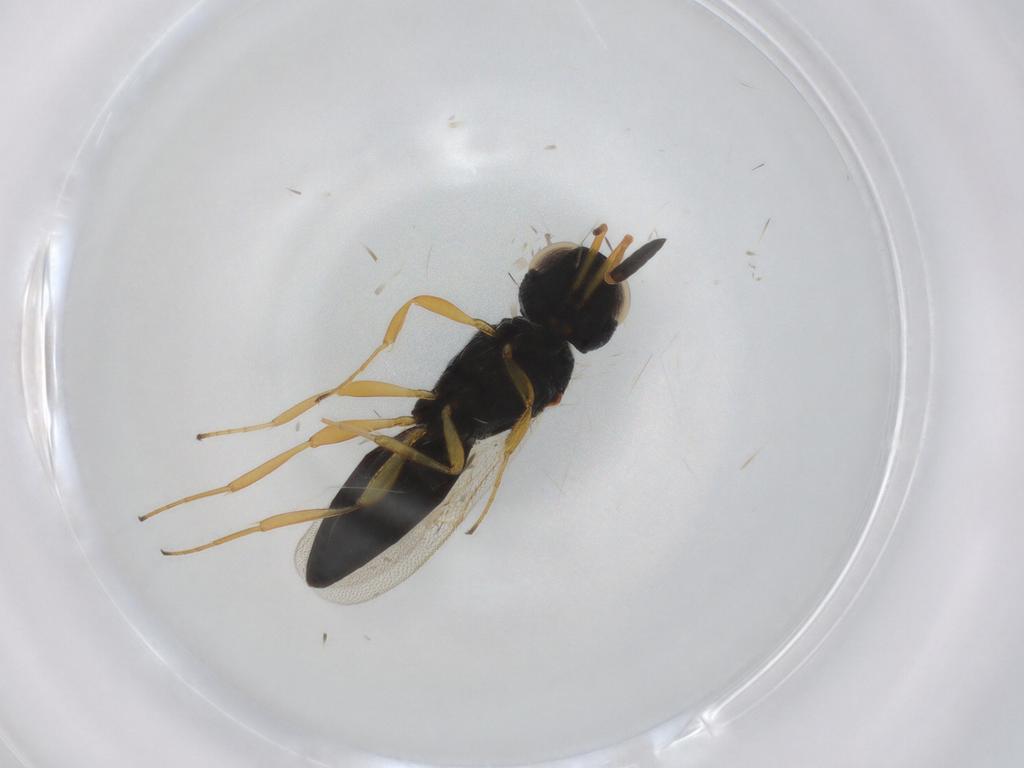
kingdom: Animalia
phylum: Arthropoda
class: Insecta
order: Hymenoptera
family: Scelionidae
